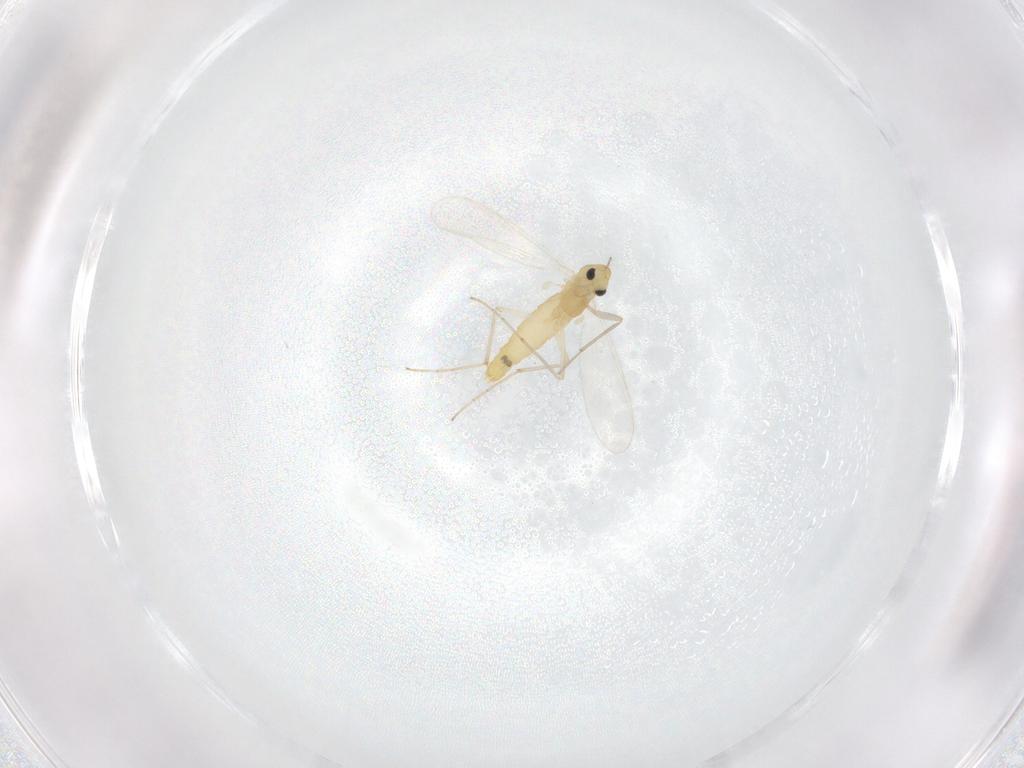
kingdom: Animalia
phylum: Arthropoda
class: Insecta
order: Diptera
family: Chironomidae
